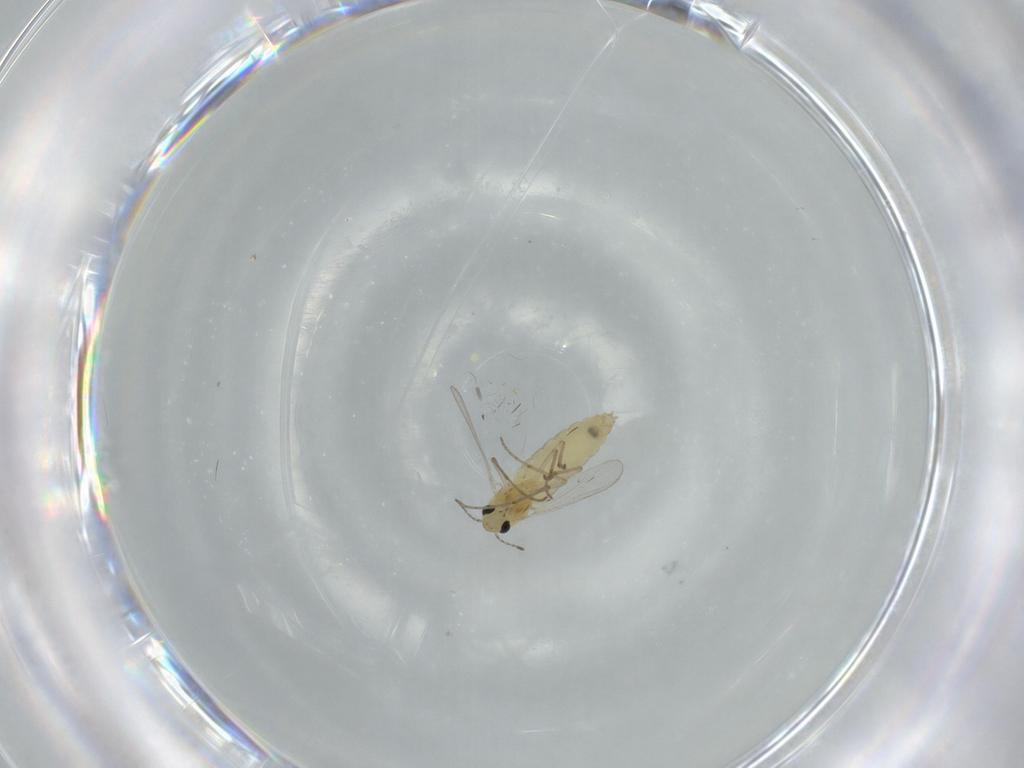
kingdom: Animalia
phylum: Arthropoda
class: Insecta
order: Diptera
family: Chironomidae
